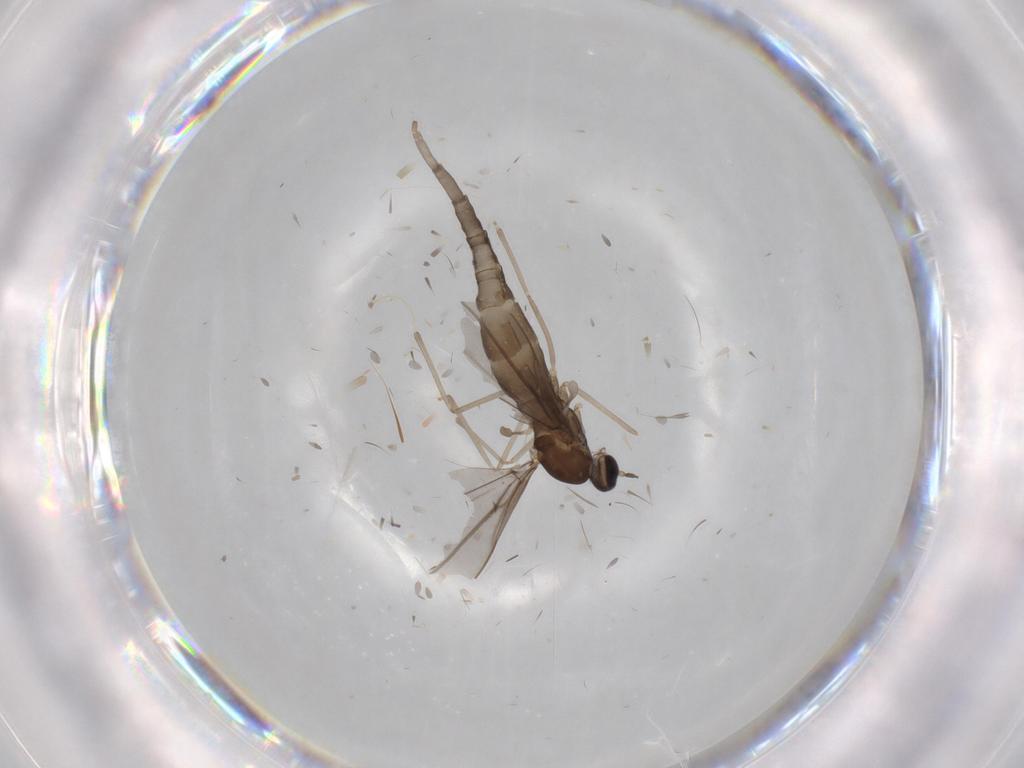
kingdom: Animalia
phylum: Arthropoda
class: Insecta
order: Diptera
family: Cecidomyiidae
